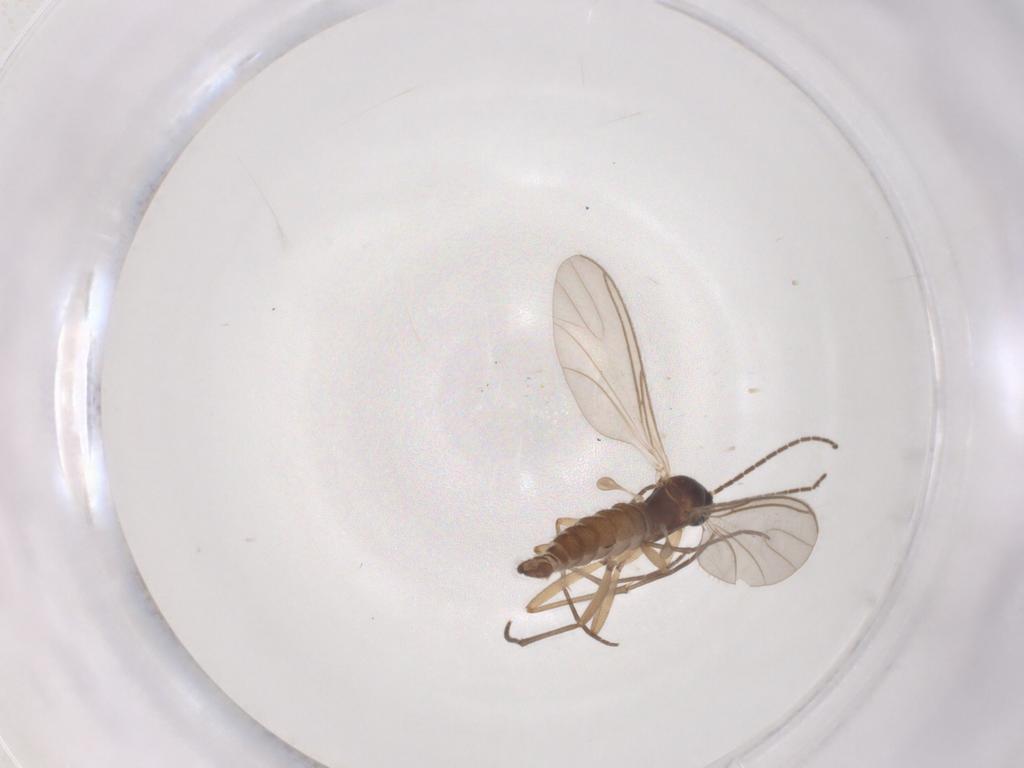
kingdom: Animalia
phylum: Arthropoda
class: Insecta
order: Diptera
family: Sciaridae
